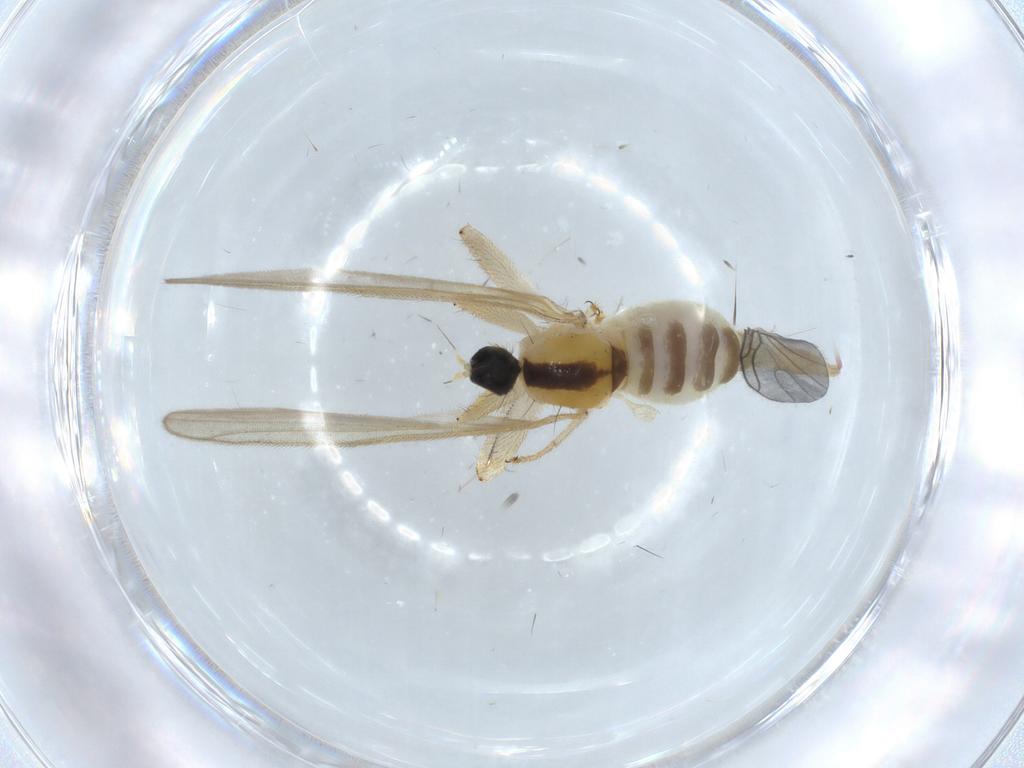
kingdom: Animalia
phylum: Arthropoda
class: Insecta
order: Diptera
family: Hybotidae
